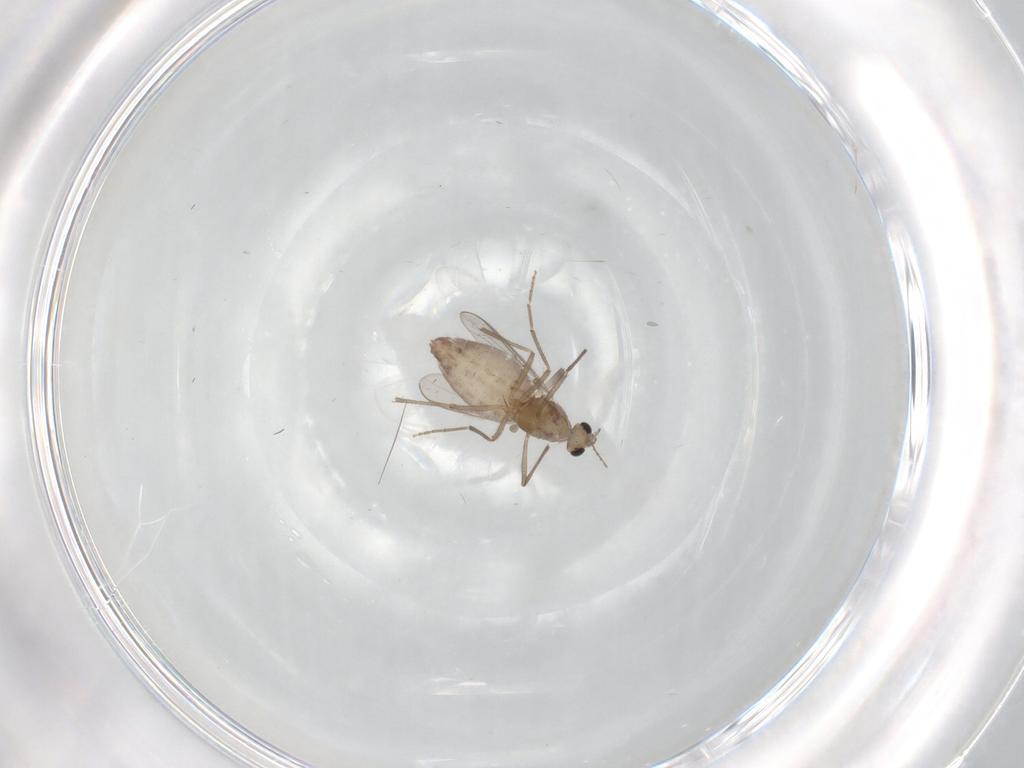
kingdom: Animalia
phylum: Arthropoda
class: Insecta
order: Diptera
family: Chironomidae
